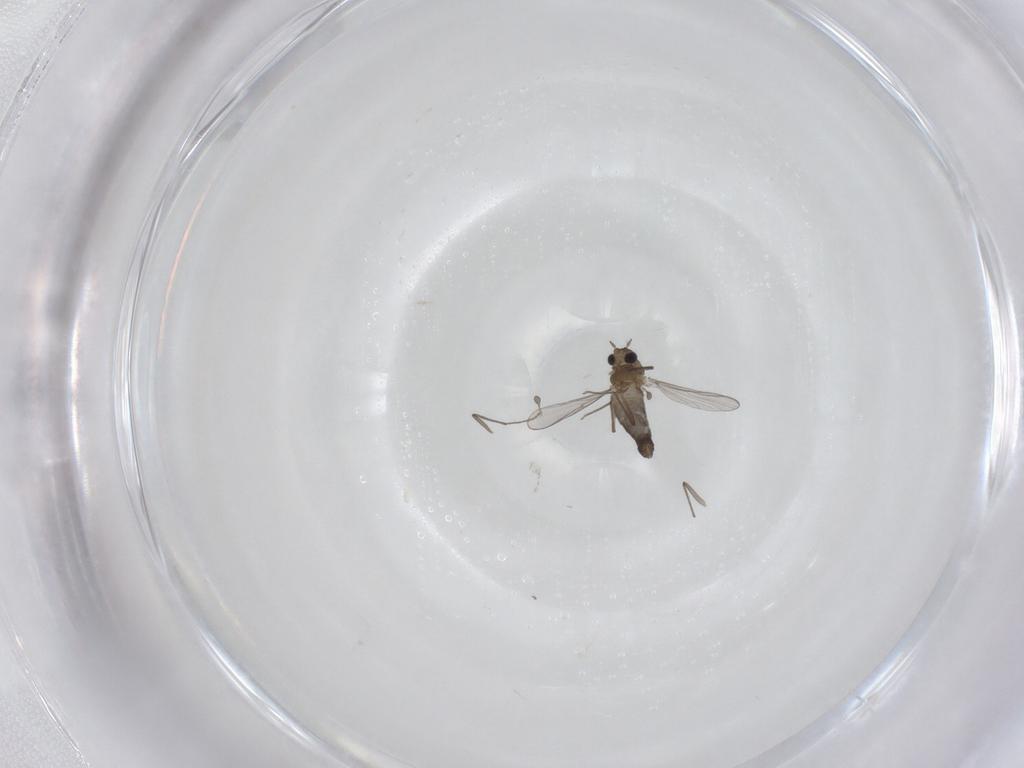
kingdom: Animalia
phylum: Arthropoda
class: Insecta
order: Diptera
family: Chironomidae
